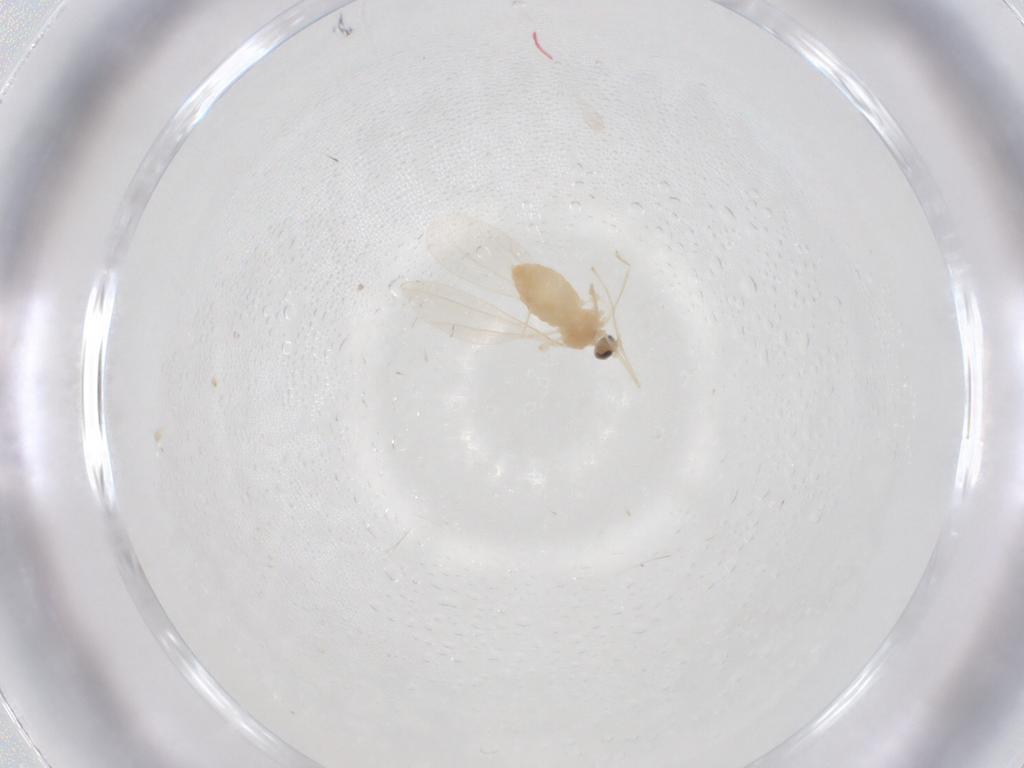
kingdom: Animalia
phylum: Arthropoda
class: Insecta
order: Diptera
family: Cecidomyiidae
